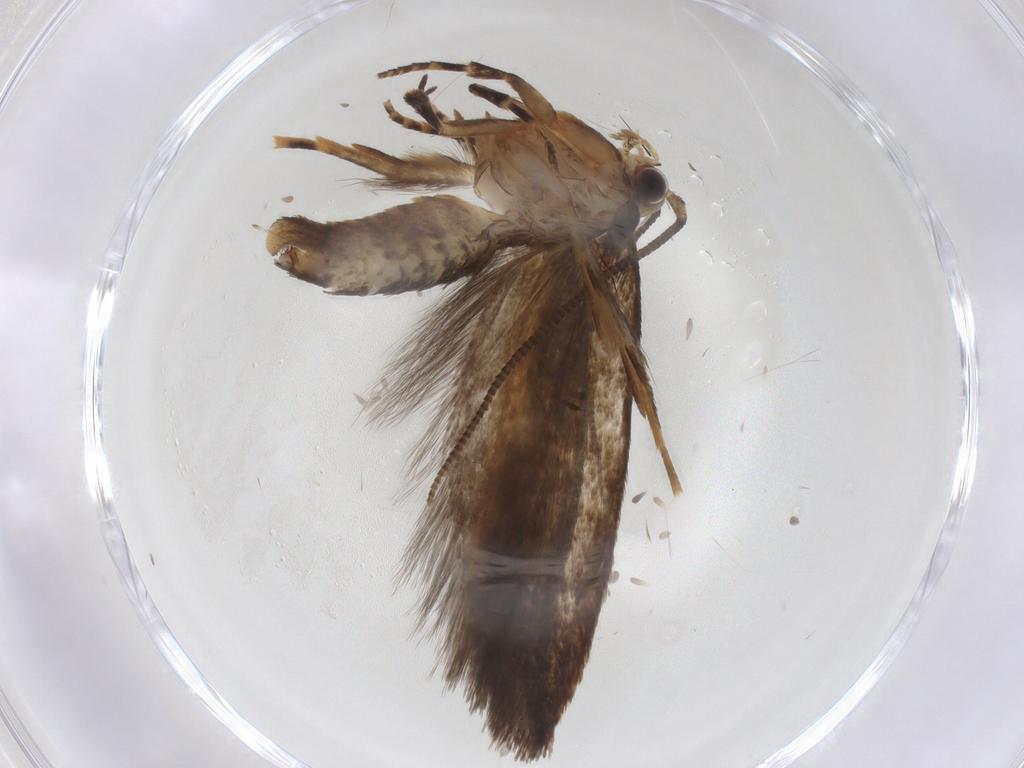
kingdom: Animalia
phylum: Arthropoda
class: Insecta
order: Lepidoptera
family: Crambidae
